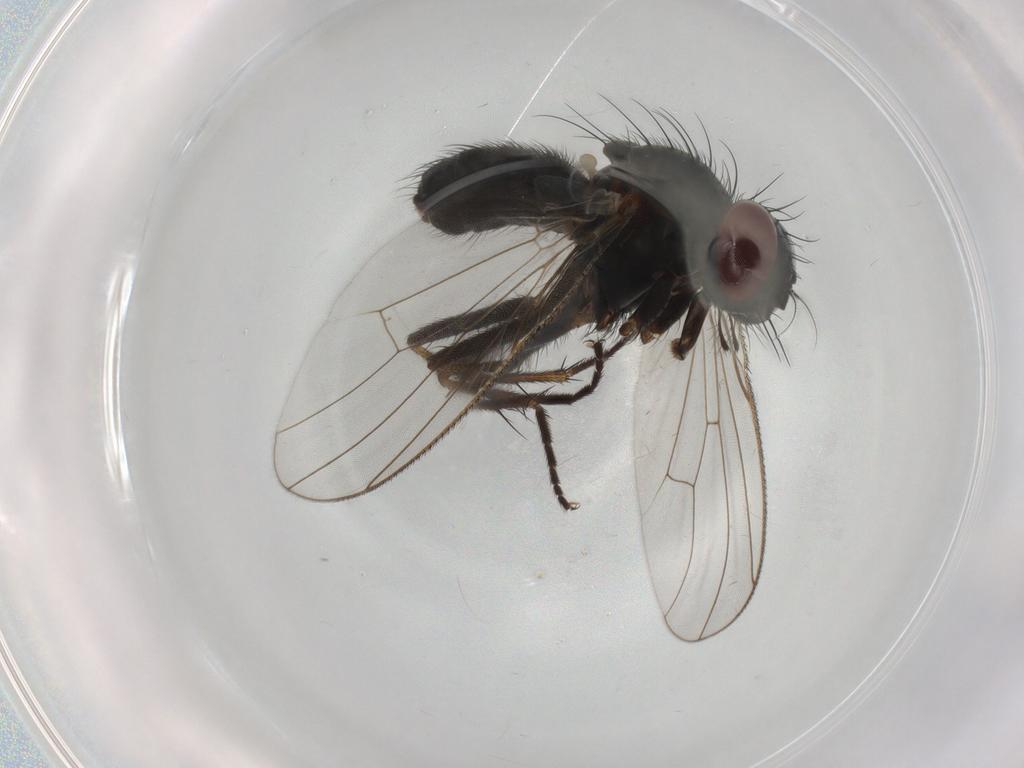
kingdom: Animalia
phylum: Arthropoda
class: Insecta
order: Diptera
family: Muscidae
